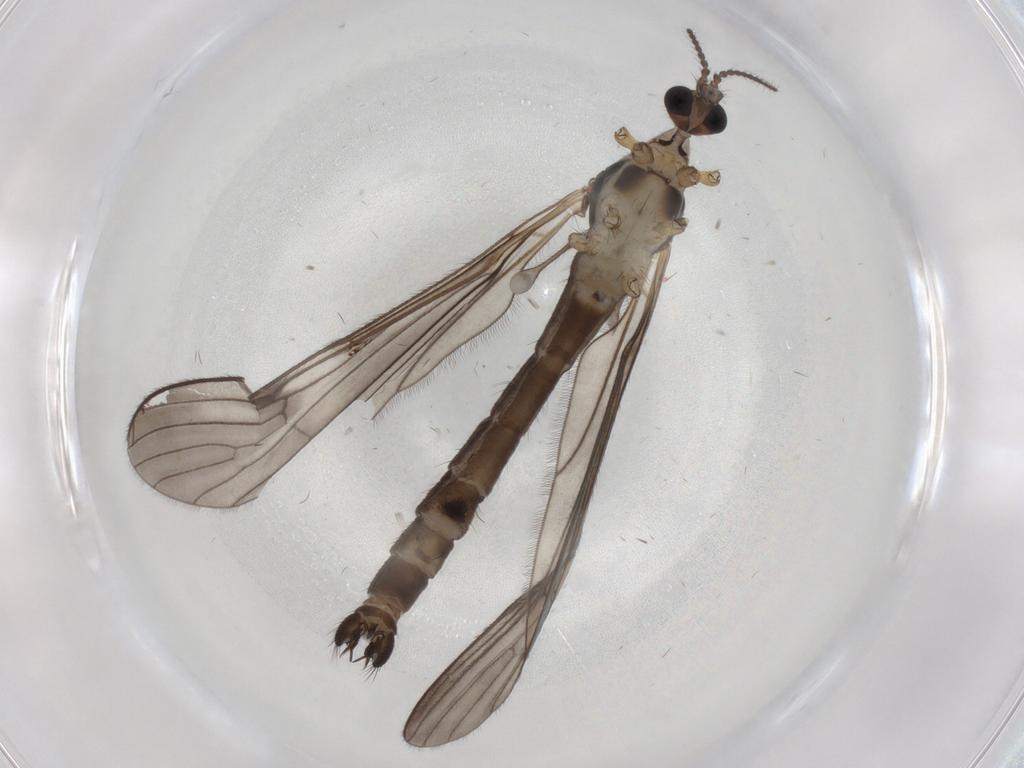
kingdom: Animalia
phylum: Arthropoda
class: Insecta
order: Diptera
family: Limoniidae
